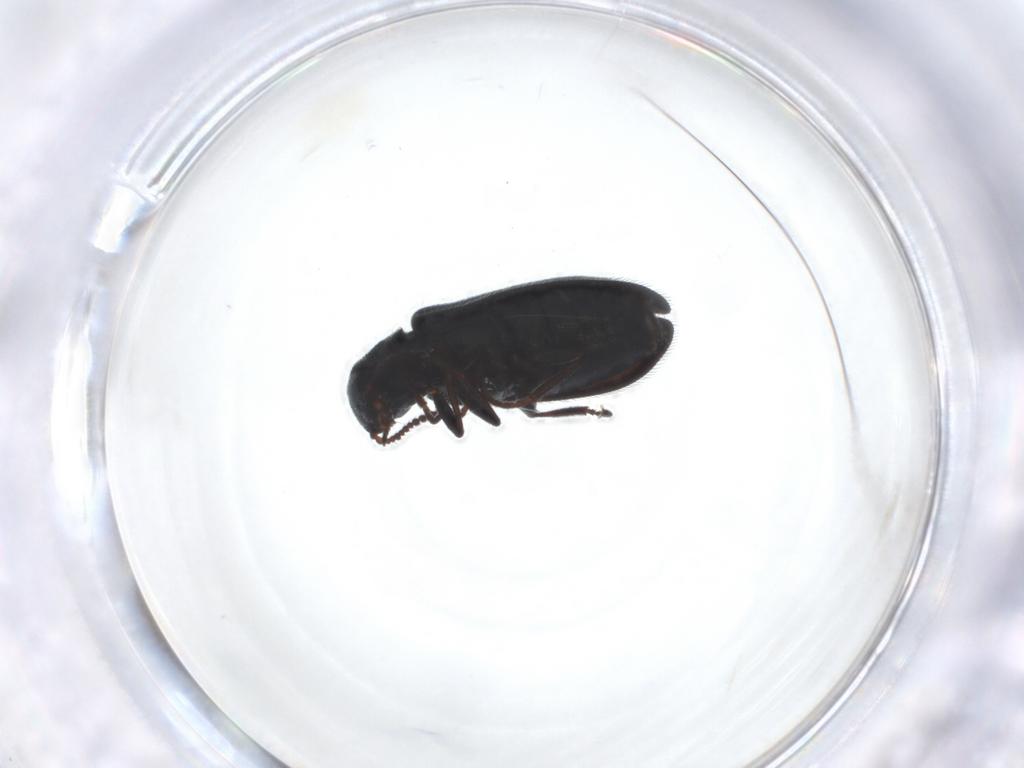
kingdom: Animalia
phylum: Arthropoda
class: Insecta
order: Coleoptera
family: Melyridae
